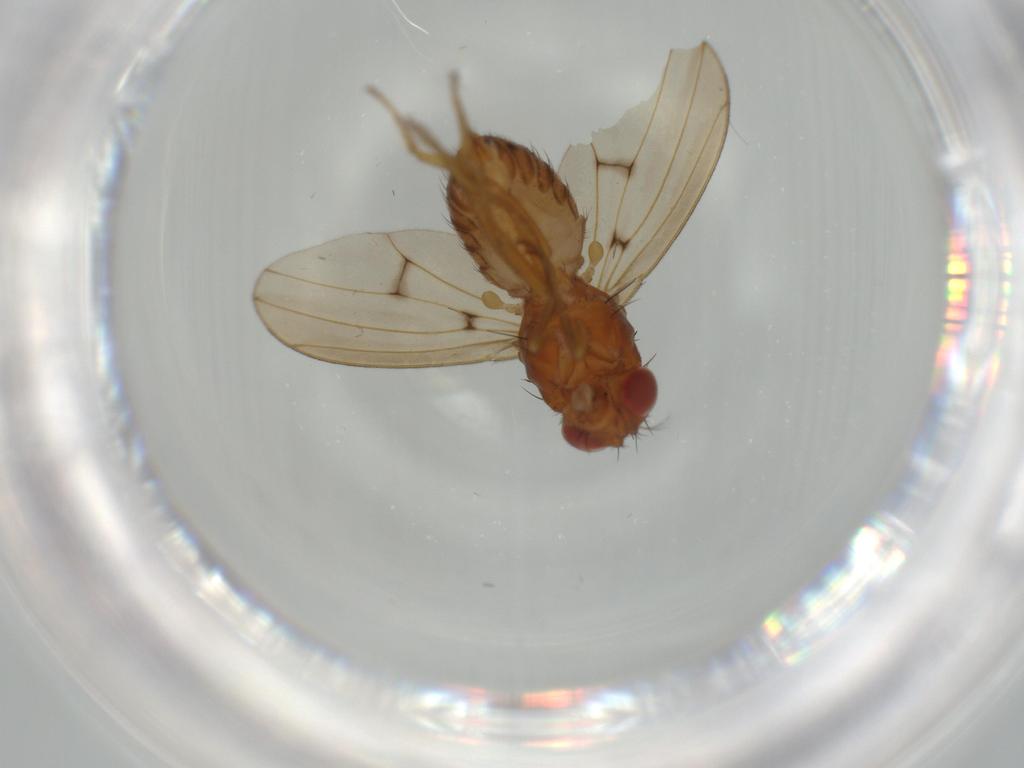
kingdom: Animalia
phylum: Arthropoda
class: Insecta
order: Diptera
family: Drosophilidae
